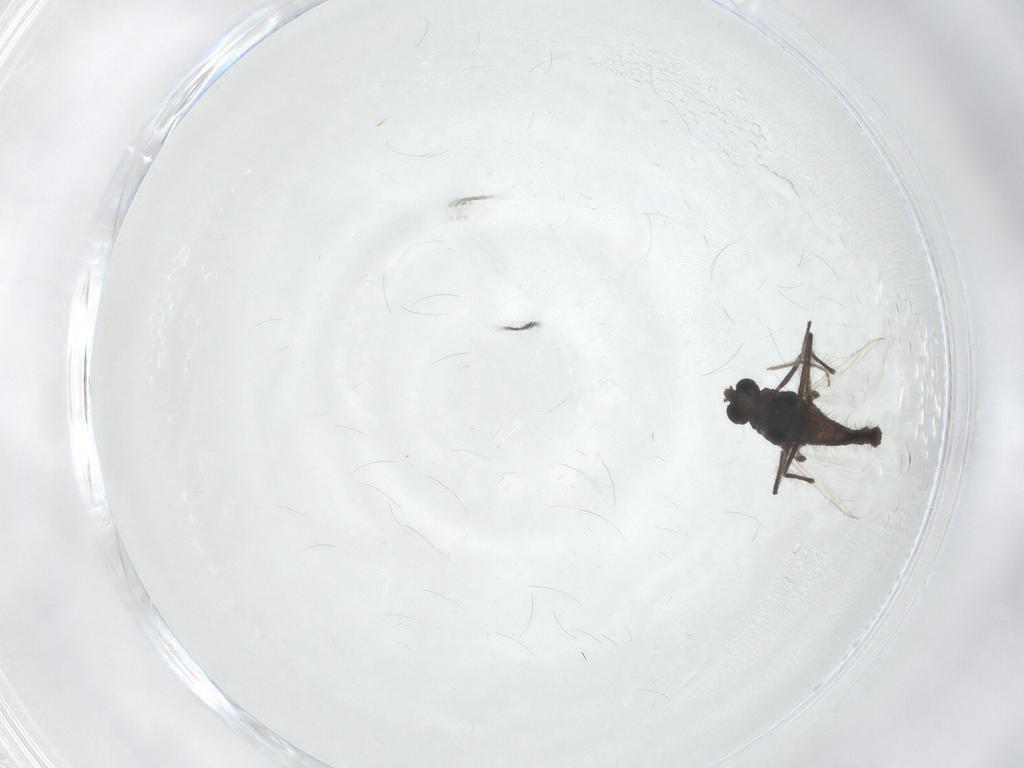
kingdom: Animalia
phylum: Arthropoda
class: Insecta
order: Diptera
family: Chironomidae
